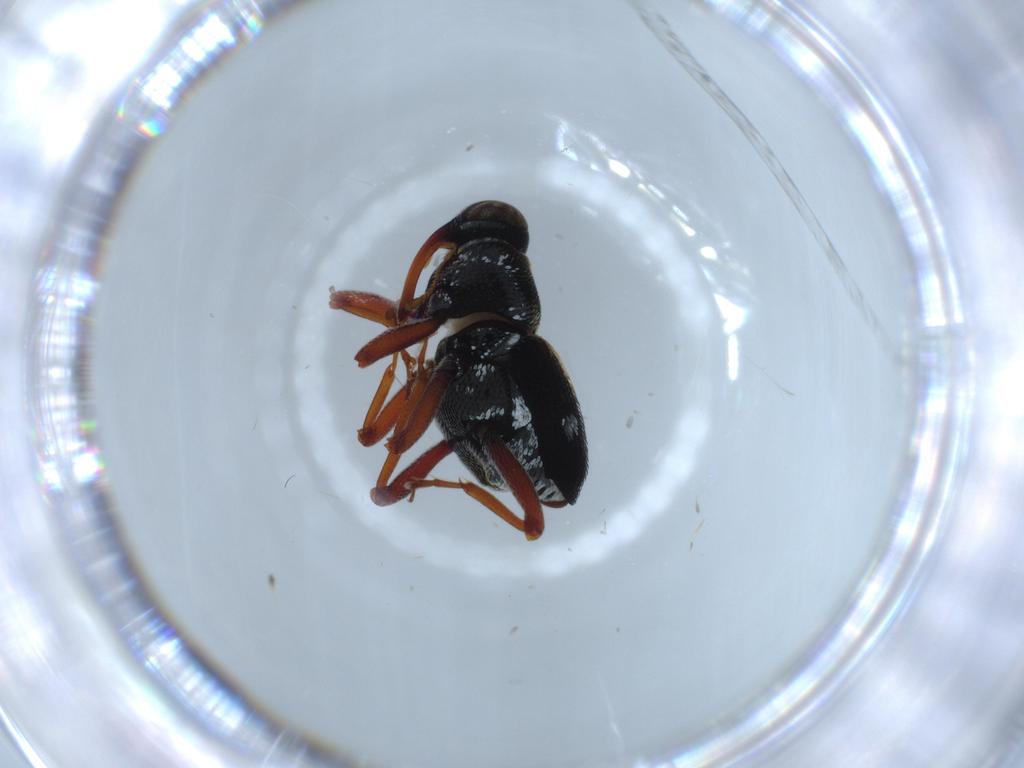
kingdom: Animalia
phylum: Arthropoda
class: Insecta
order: Coleoptera
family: Curculionidae
